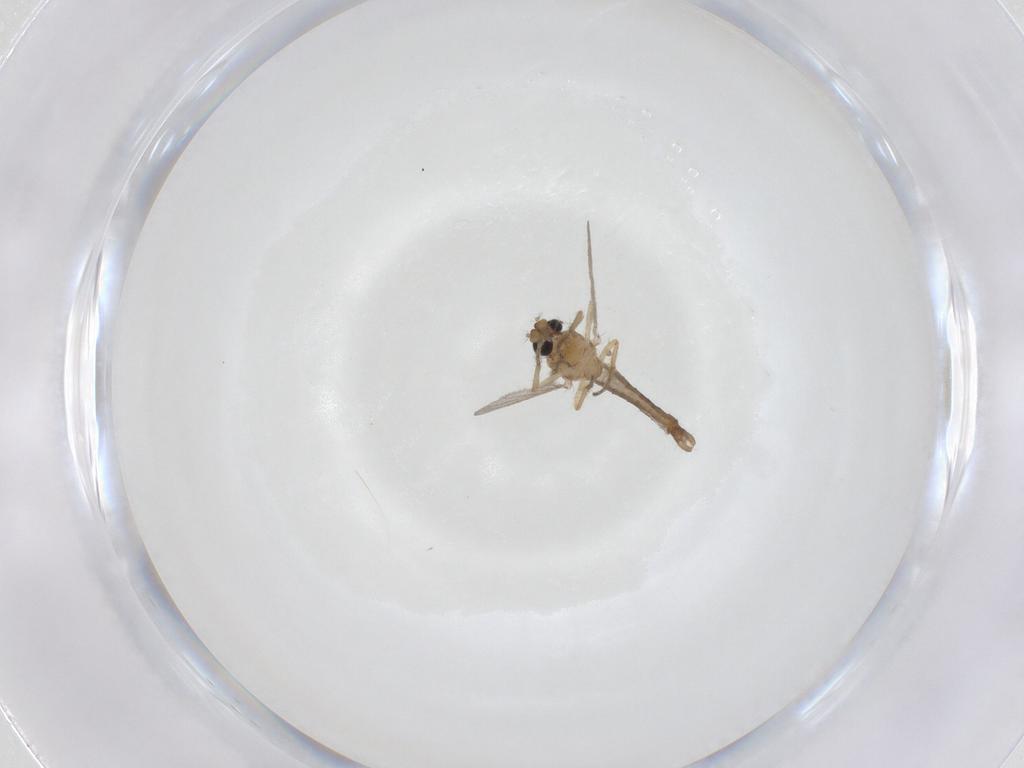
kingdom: Animalia
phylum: Arthropoda
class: Insecta
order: Diptera
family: Ceratopogonidae
